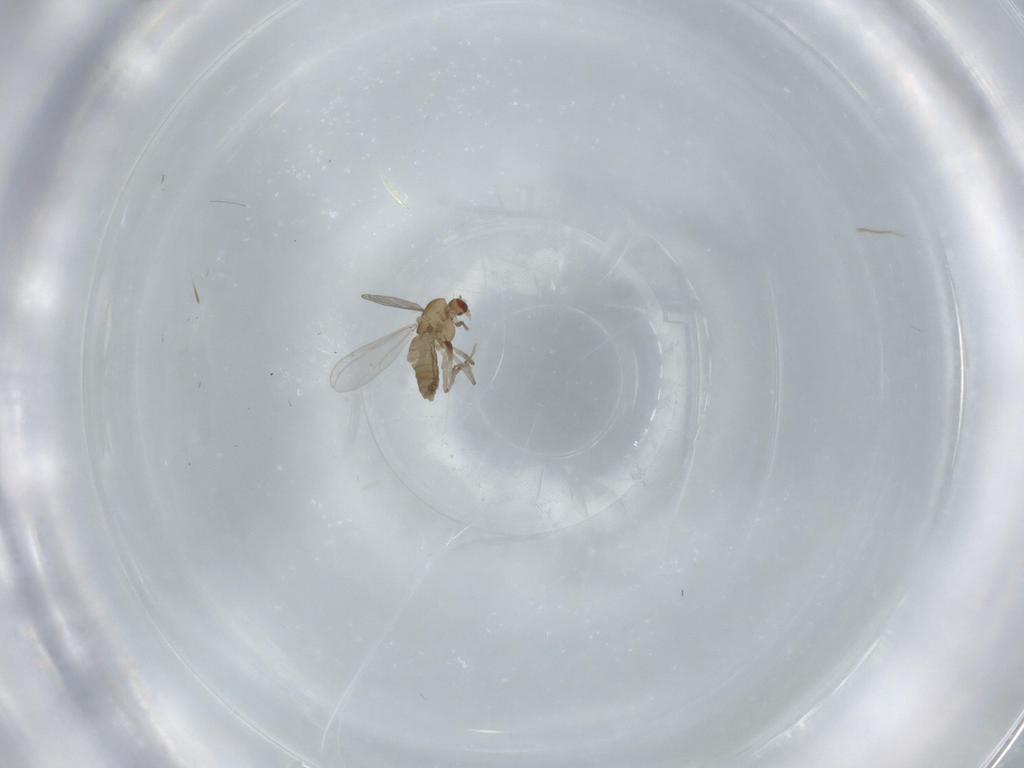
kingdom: Animalia
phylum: Arthropoda
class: Insecta
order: Diptera
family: Chironomidae
